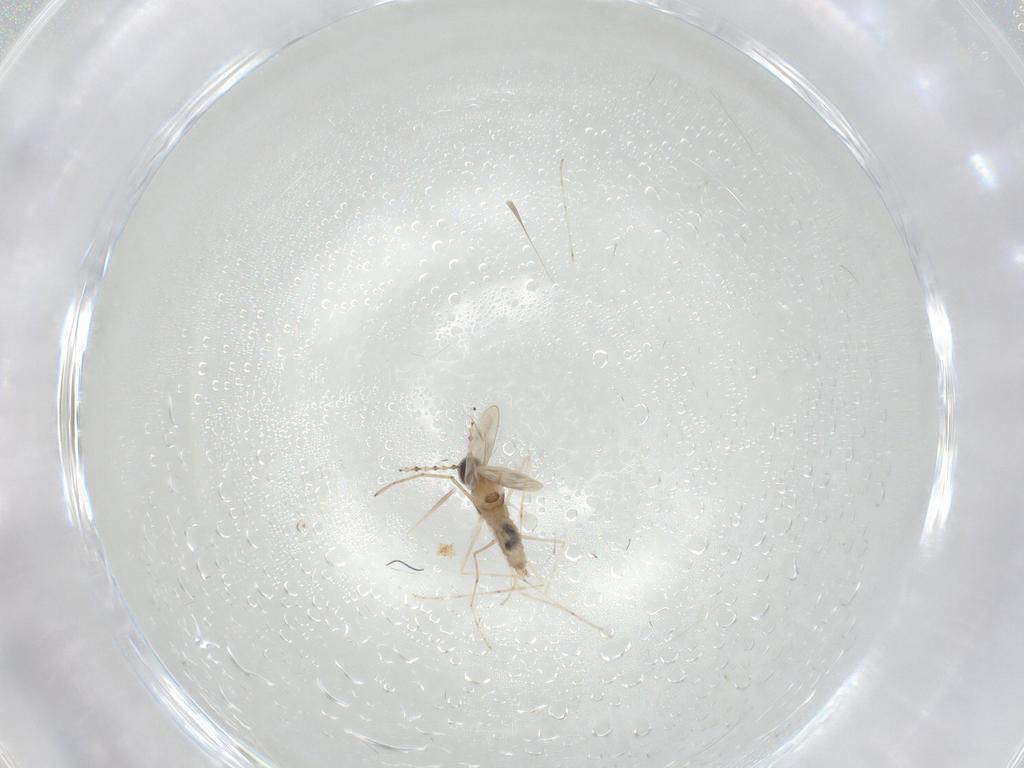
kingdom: Animalia
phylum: Arthropoda
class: Insecta
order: Diptera
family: Cecidomyiidae
